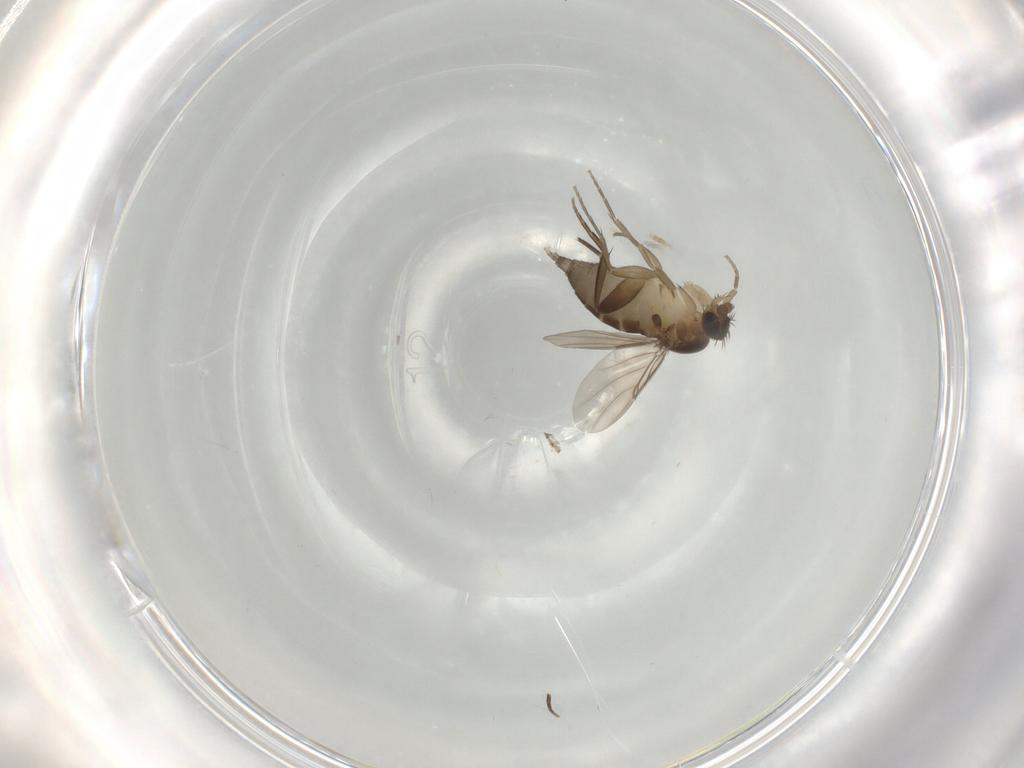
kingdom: Animalia
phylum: Arthropoda
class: Insecta
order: Diptera
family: Phoridae
